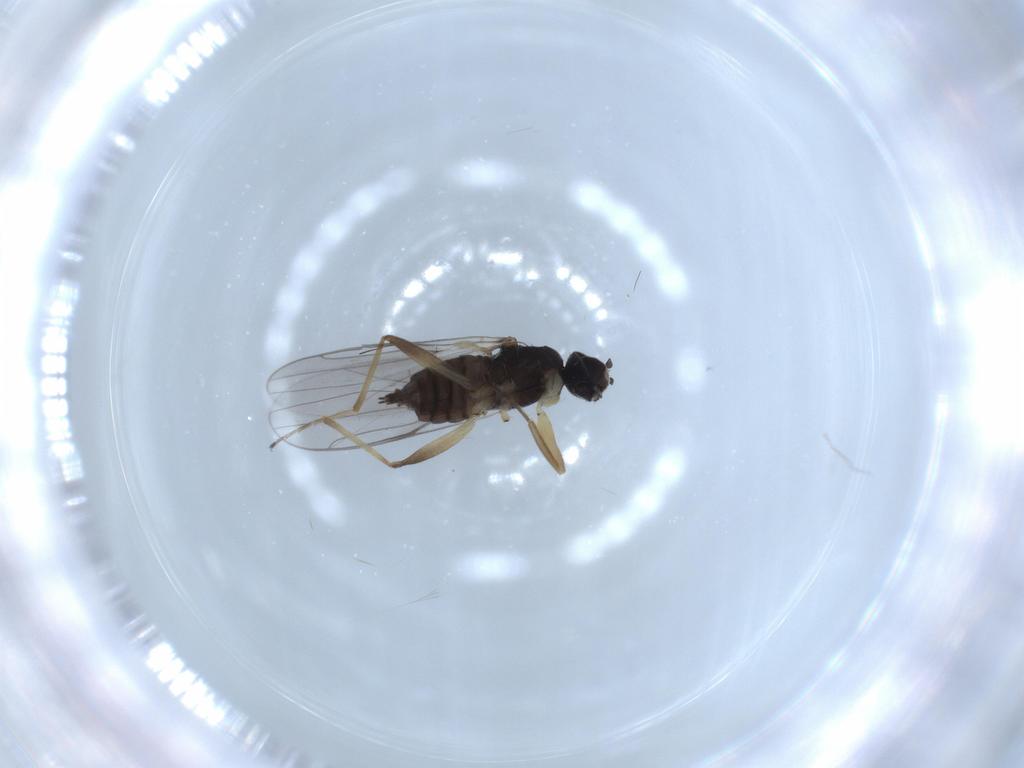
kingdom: Animalia
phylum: Arthropoda
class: Insecta
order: Diptera
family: Hybotidae
